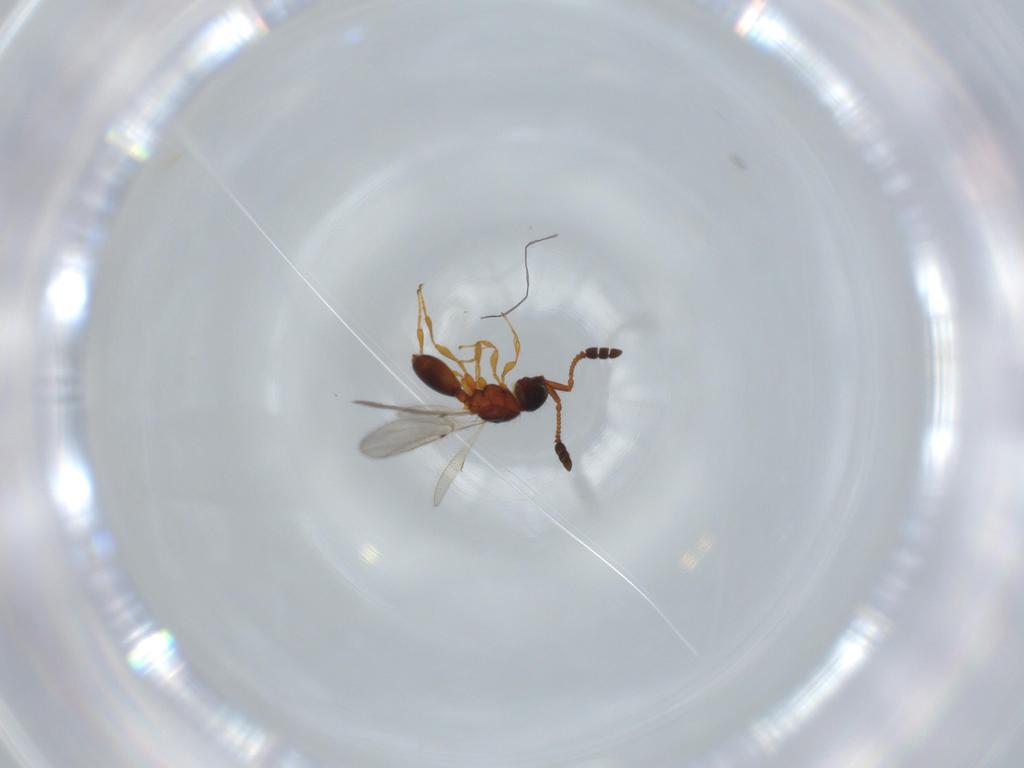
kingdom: Animalia
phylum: Arthropoda
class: Insecta
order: Hymenoptera
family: Diapriidae
